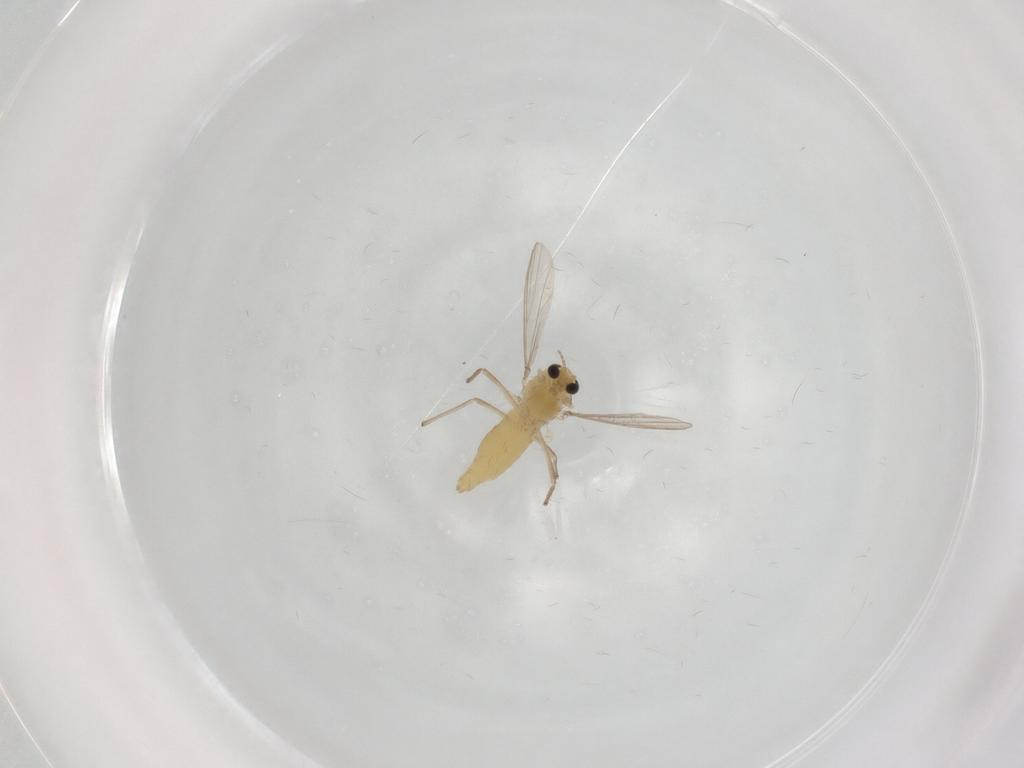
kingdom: Animalia
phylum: Arthropoda
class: Insecta
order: Diptera
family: Chironomidae
